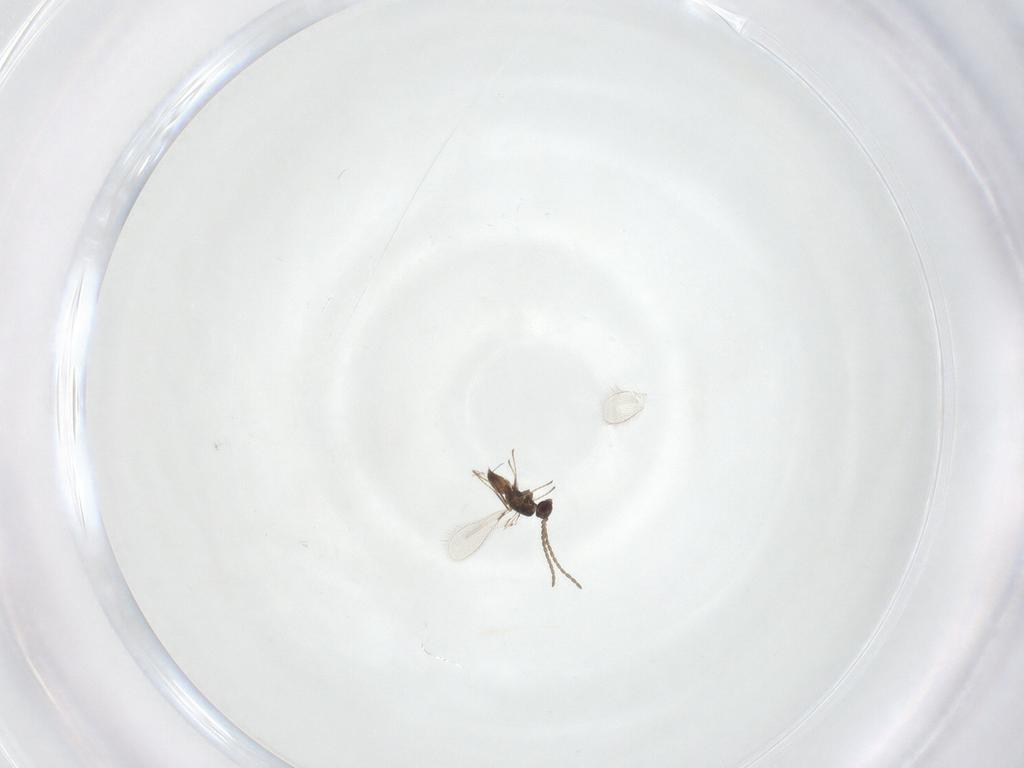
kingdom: Animalia
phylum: Arthropoda
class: Insecta
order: Hymenoptera
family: Mymaridae
